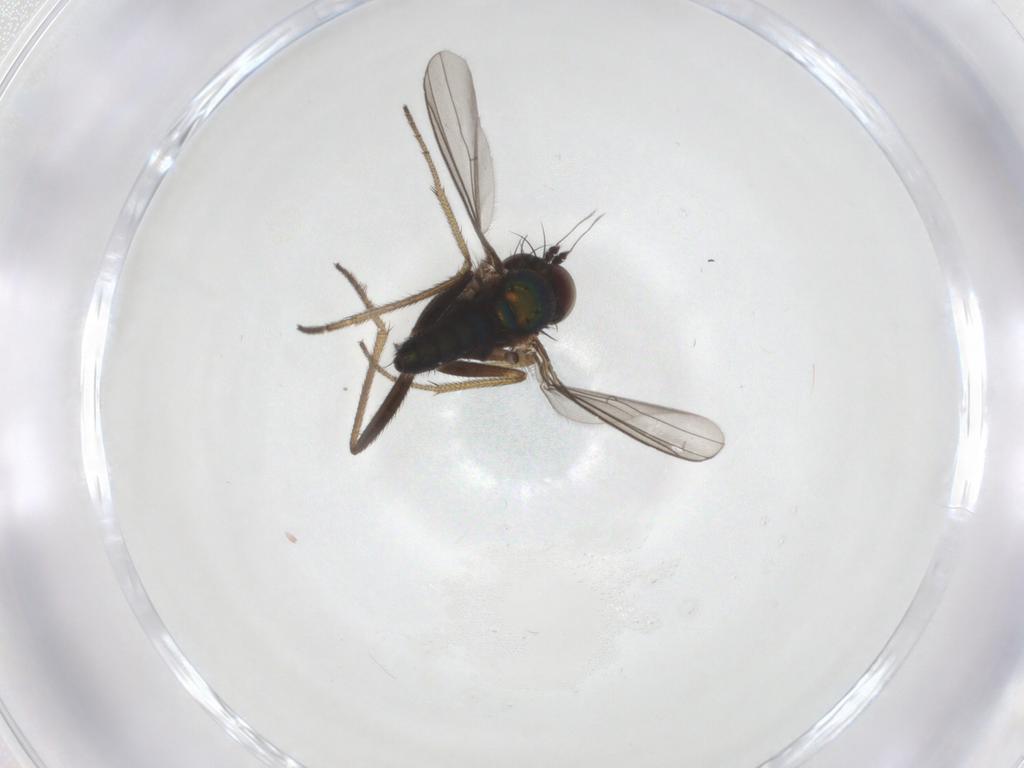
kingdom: Animalia
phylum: Arthropoda
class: Insecta
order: Diptera
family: Dolichopodidae
